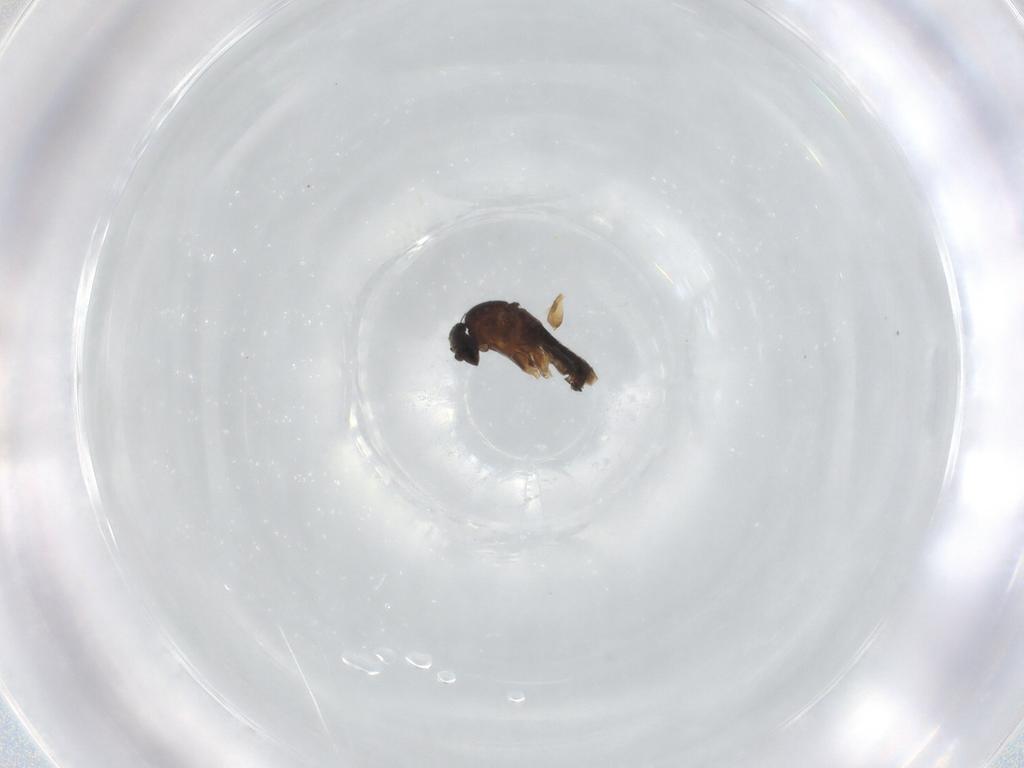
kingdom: Animalia
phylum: Arthropoda
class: Insecta
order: Diptera
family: Phoridae
